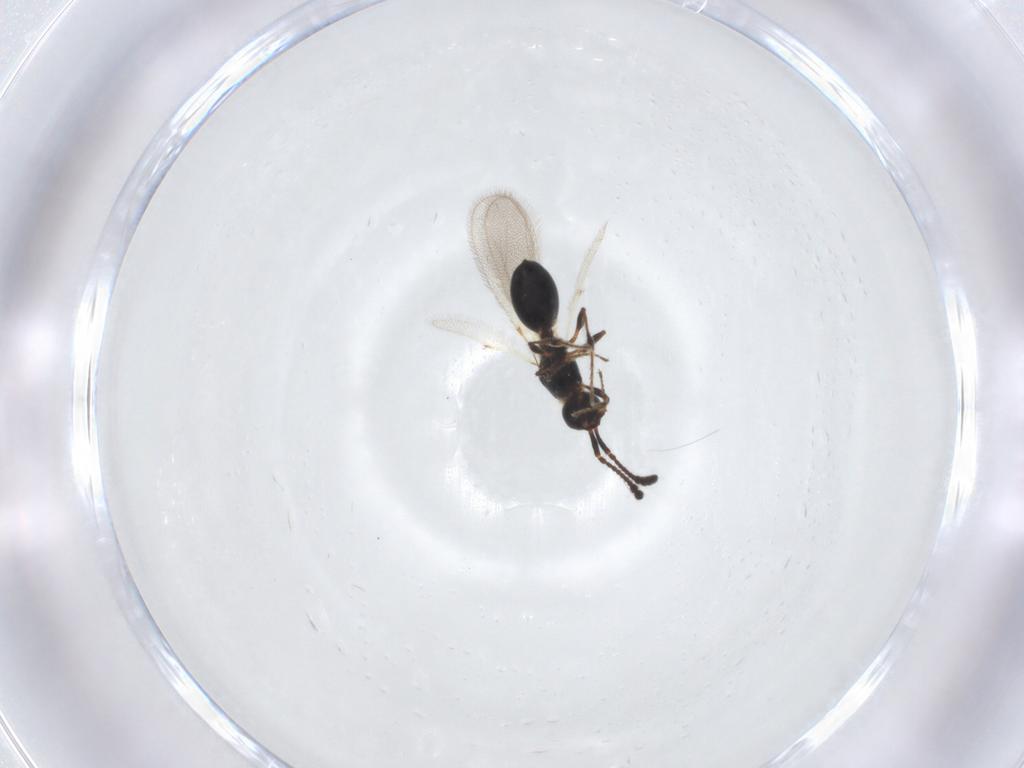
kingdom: Animalia
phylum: Arthropoda
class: Insecta
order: Hymenoptera
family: Diapriidae
